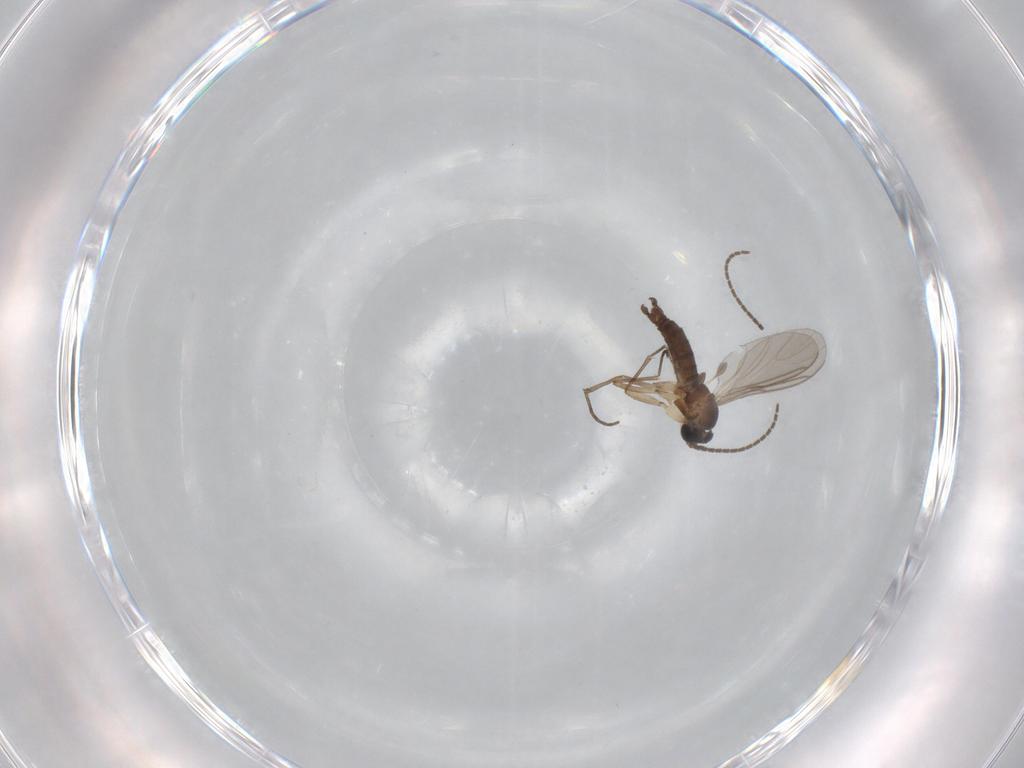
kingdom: Animalia
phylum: Arthropoda
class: Insecta
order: Diptera
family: Sciaridae
